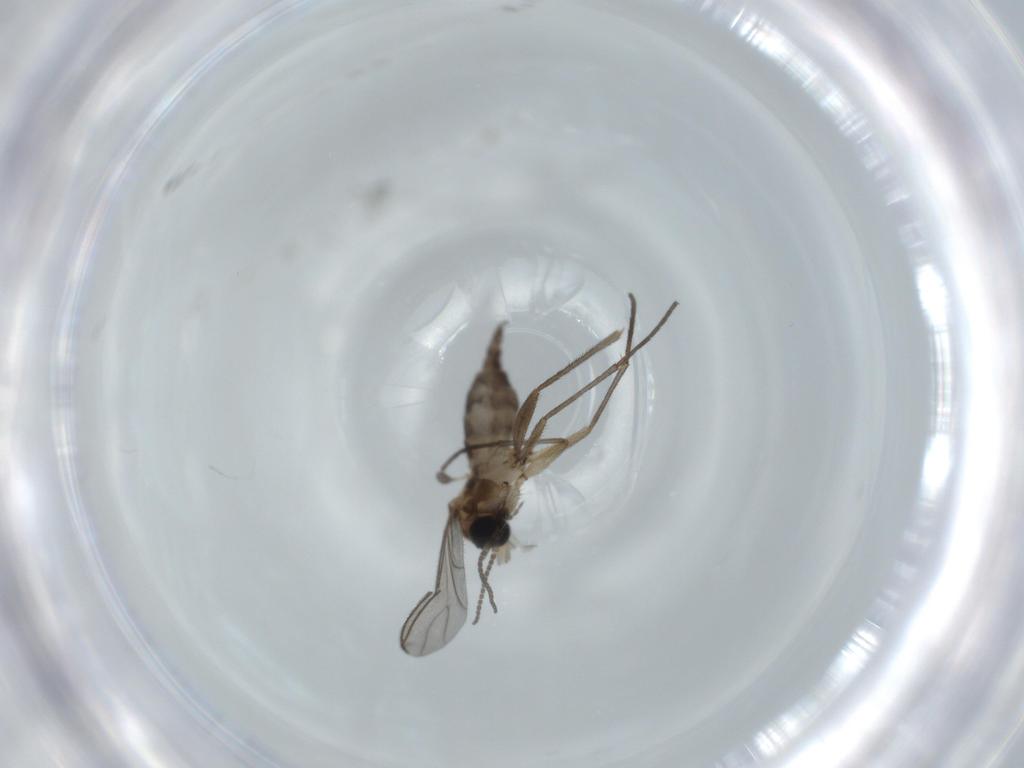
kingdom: Animalia
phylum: Arthropoda
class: Insecta
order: Diptera
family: Sciaridae
